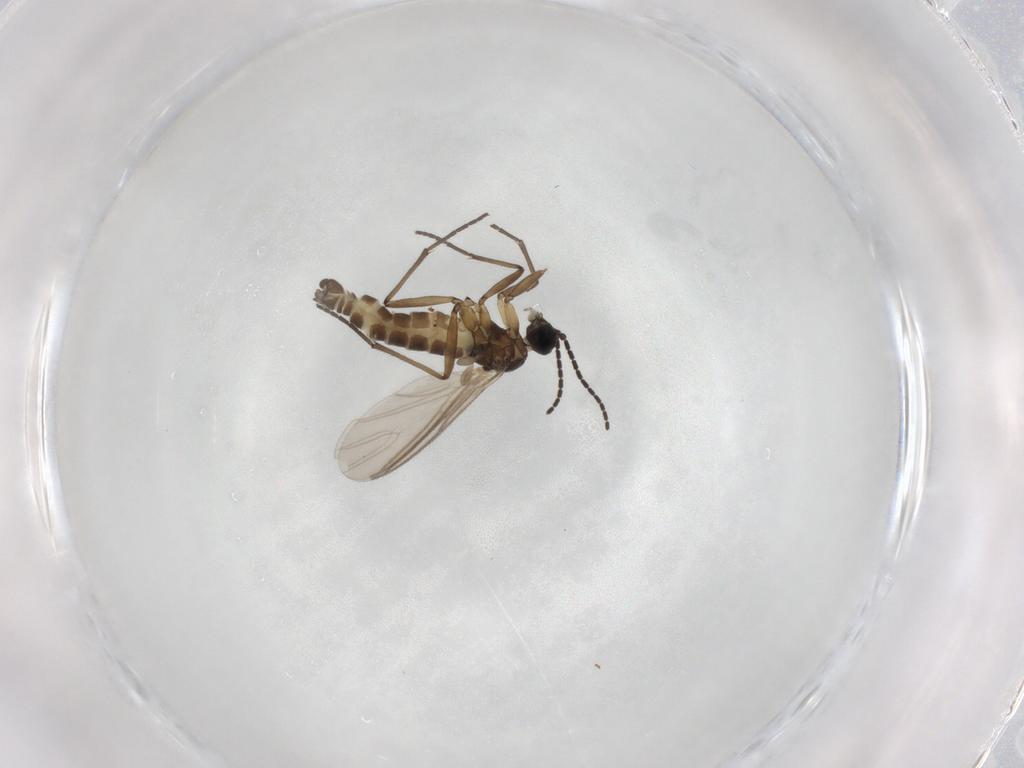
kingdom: Animalia
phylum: Arthropoda
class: Insecta
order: Diptera
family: Sciaridae
